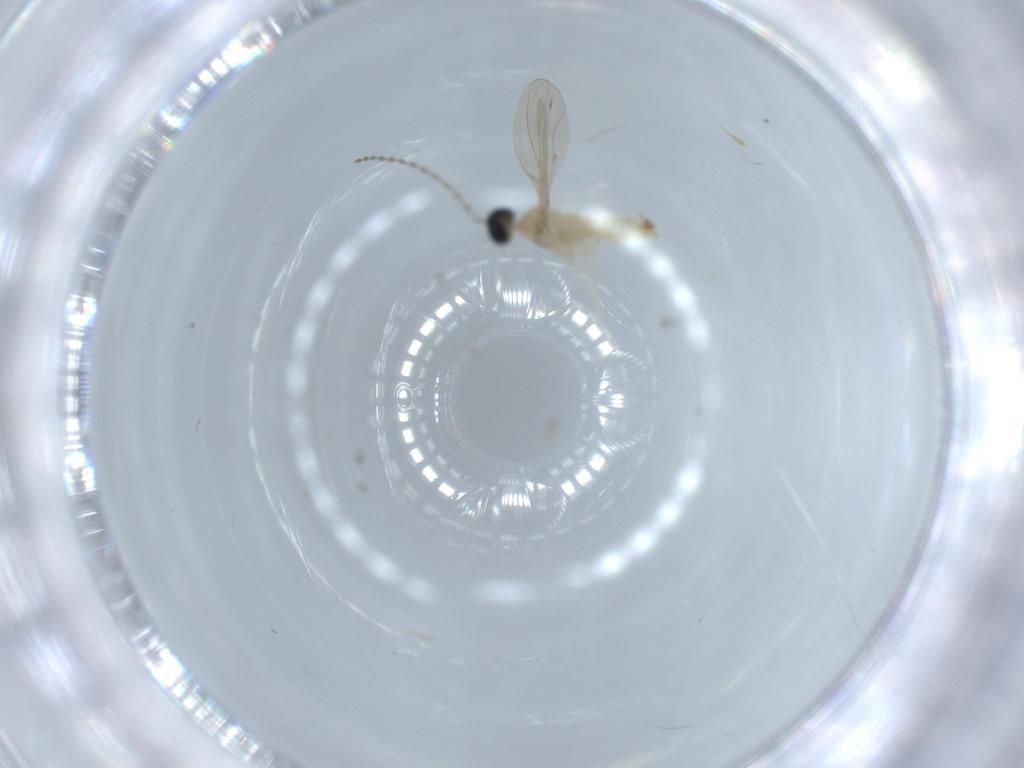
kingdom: Animalia
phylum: Arthropoda
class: Insecta
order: Diptera
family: Cecidomyiidae
